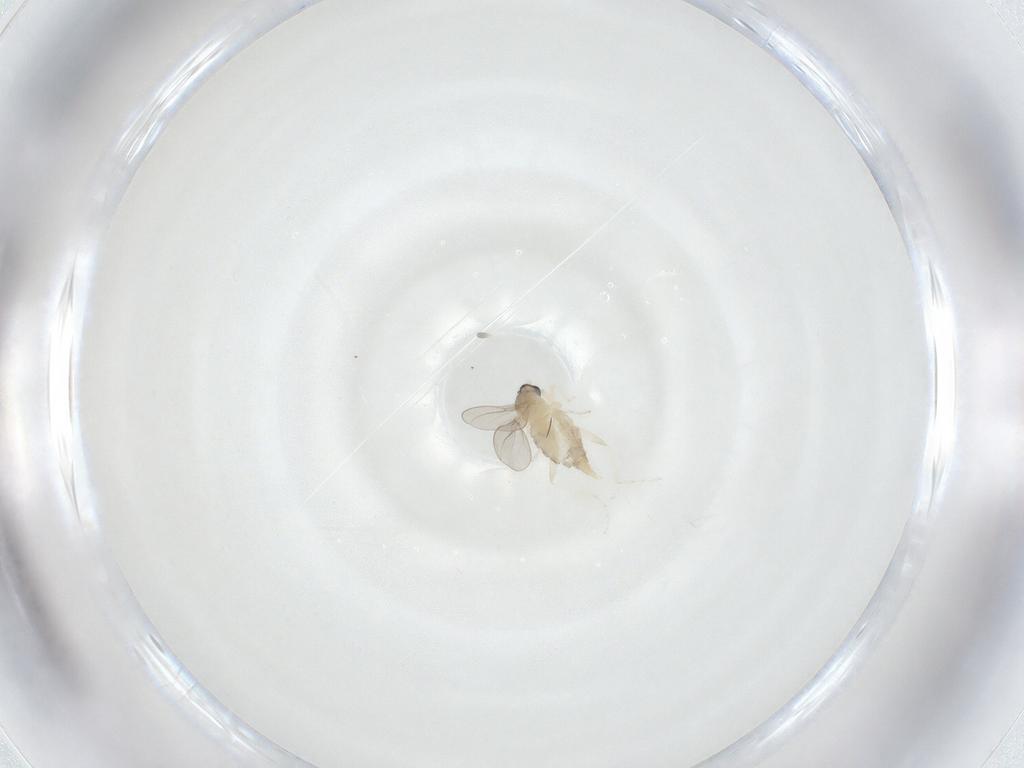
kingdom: Animalia
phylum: Arthropoda
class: Insecta
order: Diptera
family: Cecidomyiidae
